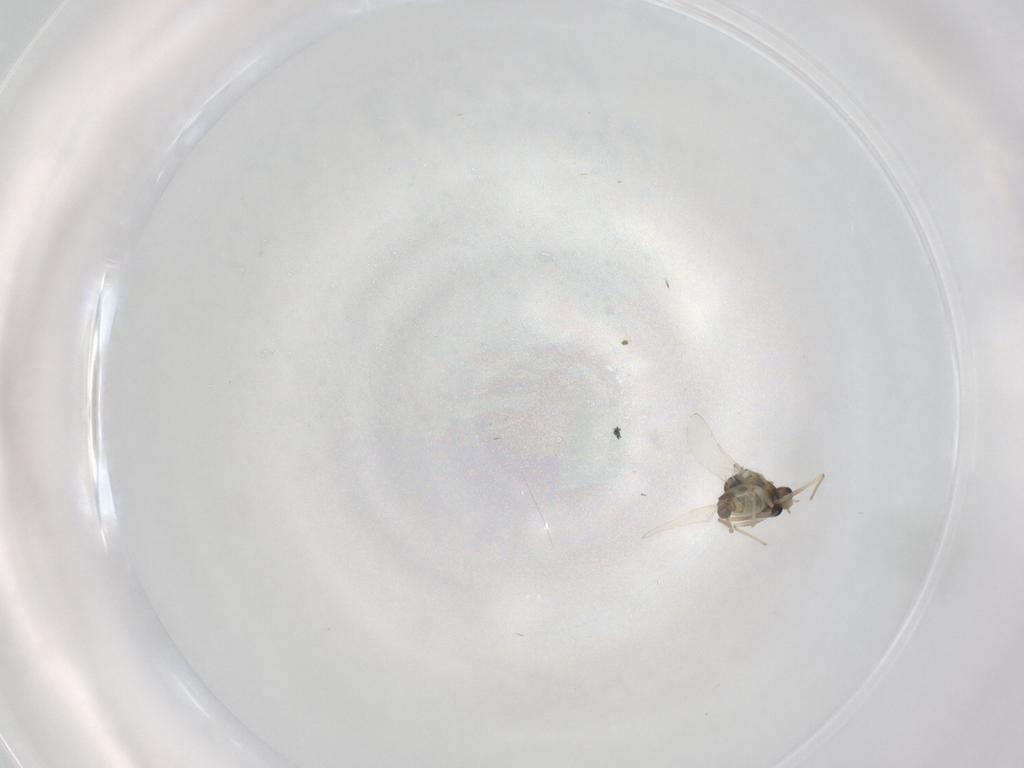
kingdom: Animalia
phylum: Arthropoda
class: Insecta
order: Diptera
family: Chironomidae
